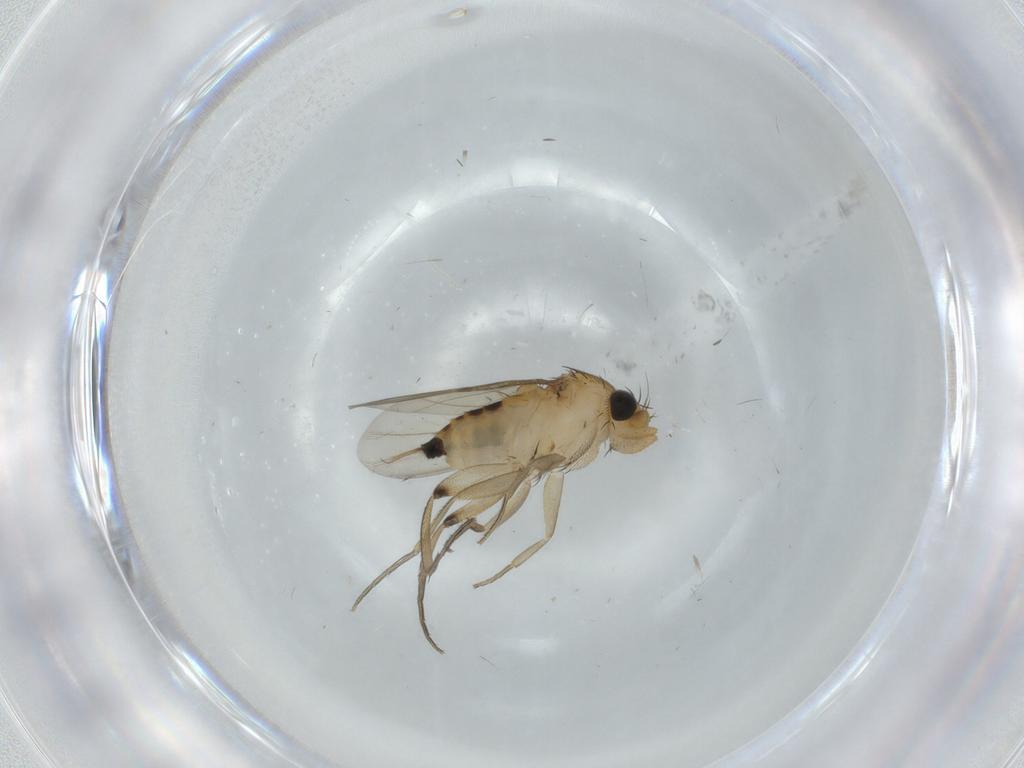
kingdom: Animalia
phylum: Arthropoda
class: Insecta
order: Diptera
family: Phoridae
